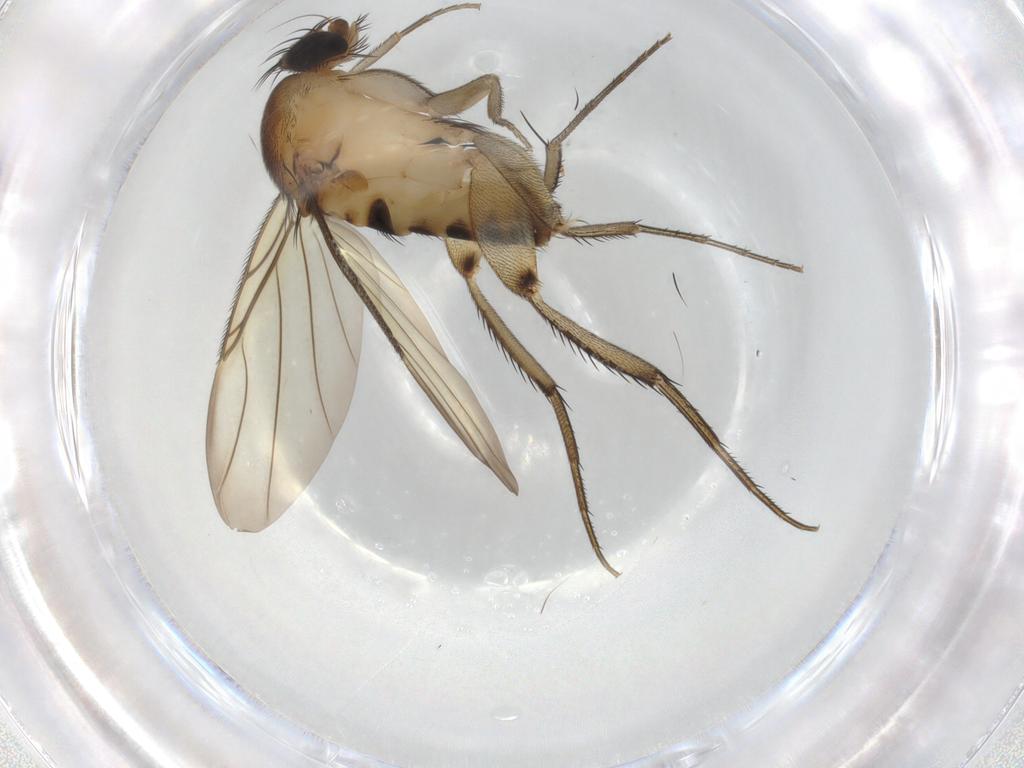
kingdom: Animalia
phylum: Arthropoda
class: Insecta
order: Diptera
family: Phoridae
